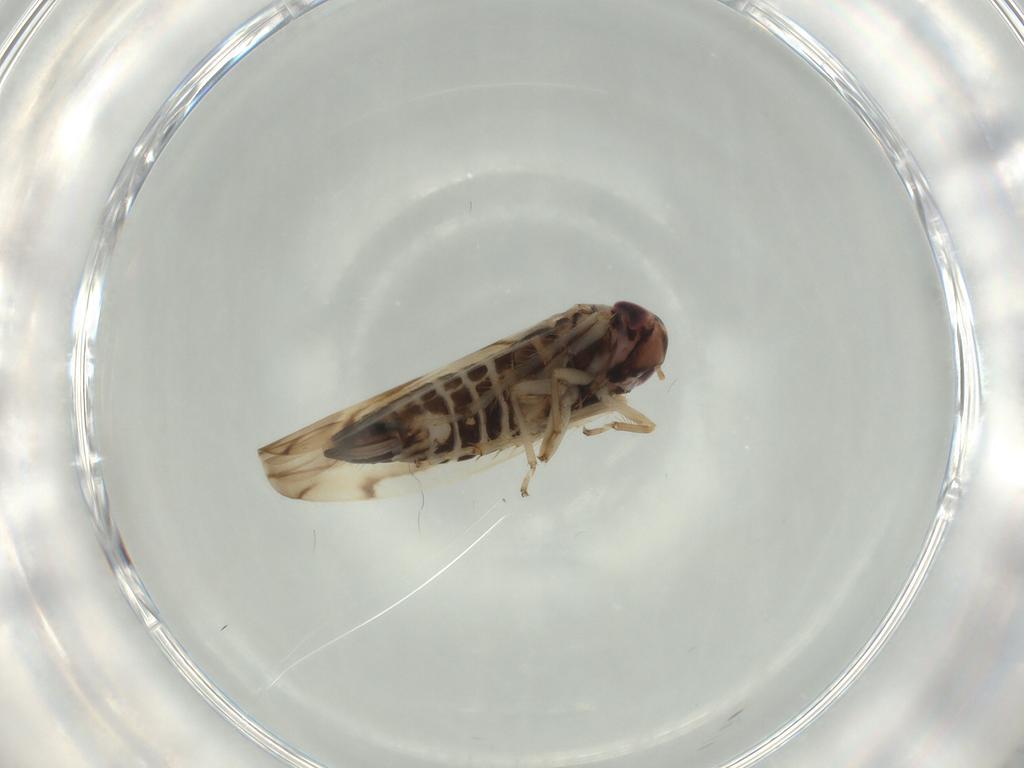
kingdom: Animalia
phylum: Arthropoda
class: Insecta
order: Hemiptera
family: Cicadellidae
